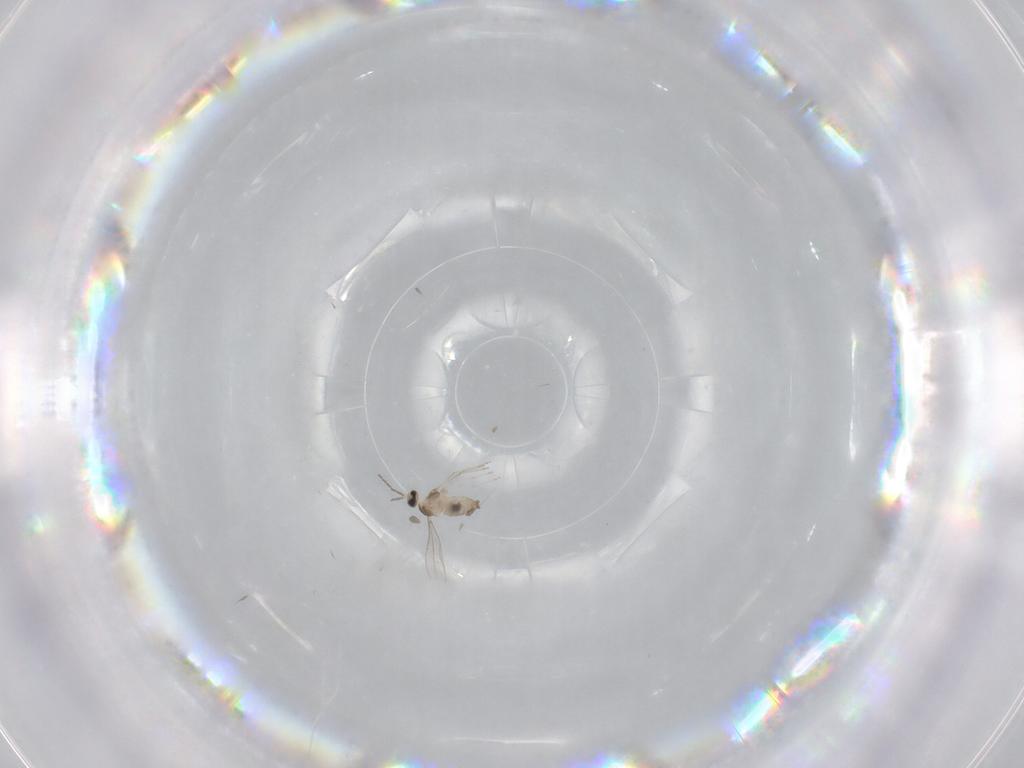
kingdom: Animalia
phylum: Arthropoda
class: Insecta
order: Diptera
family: Cecidomyiidae
